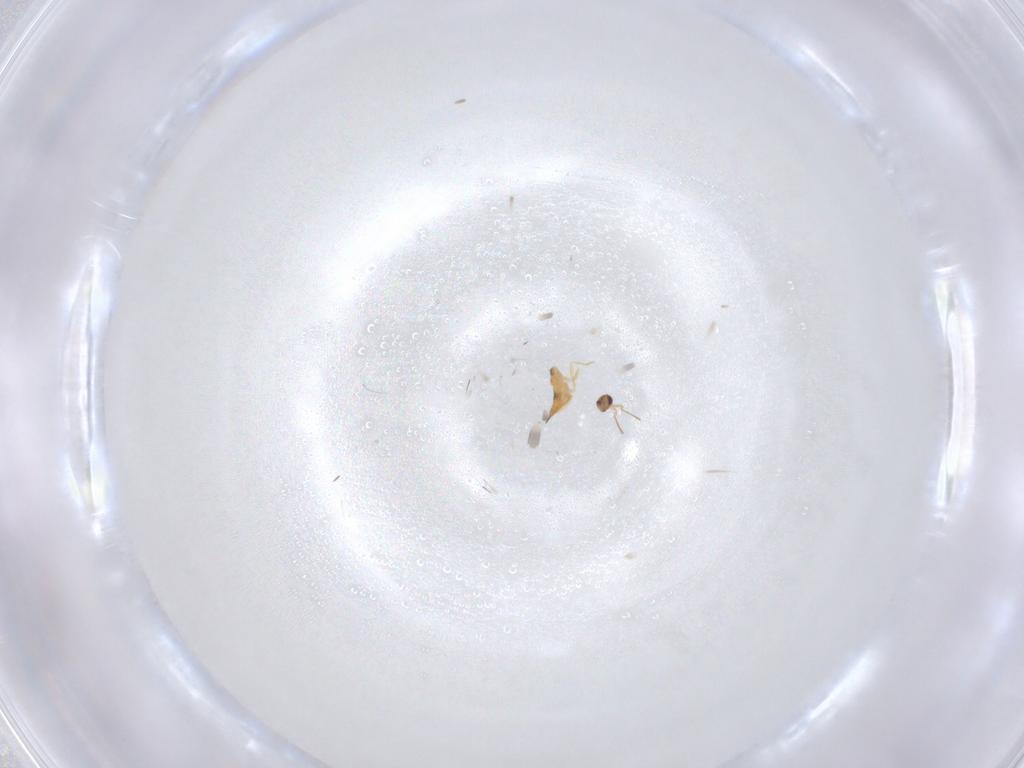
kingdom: Animalia
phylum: Arthropoda
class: Insecta
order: Hymenoptera
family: Mymaridae
